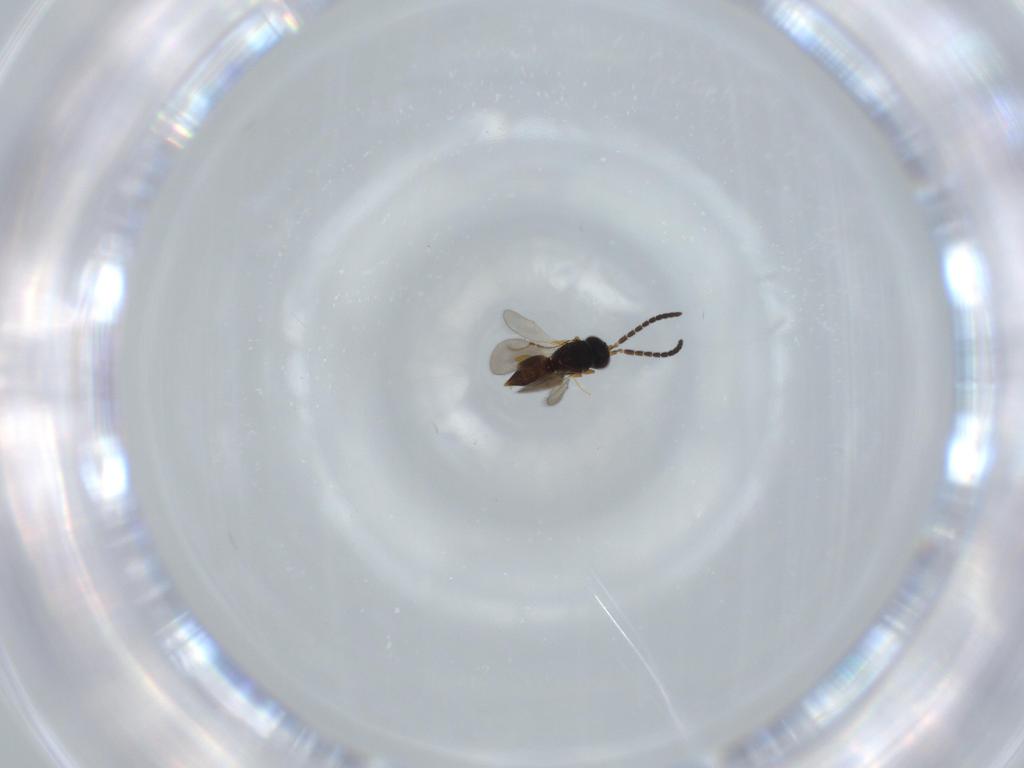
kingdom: Animalia
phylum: Arthropoda
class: Insecta
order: Hymenoptera
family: Ceraphronidae
